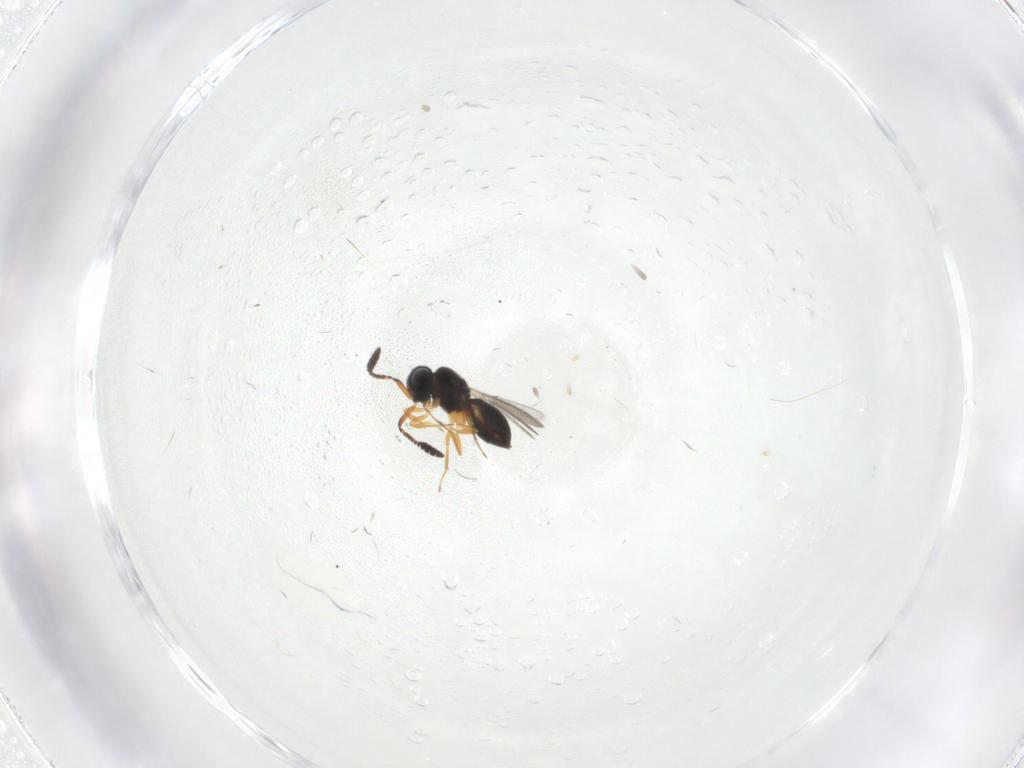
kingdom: Animalia
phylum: Arthropoda
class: Insecta
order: Hymenoptera
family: Scelionidae
